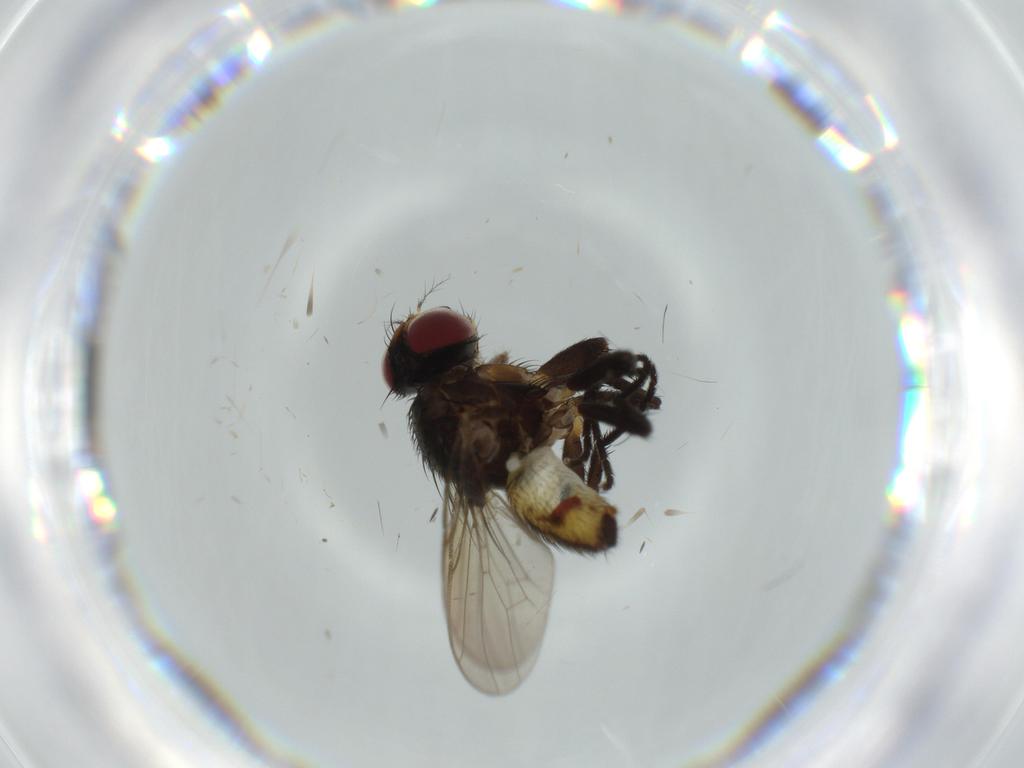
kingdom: Animalia
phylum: Arthropoda
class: Insecta
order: Diptera
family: Anthomyiidae
